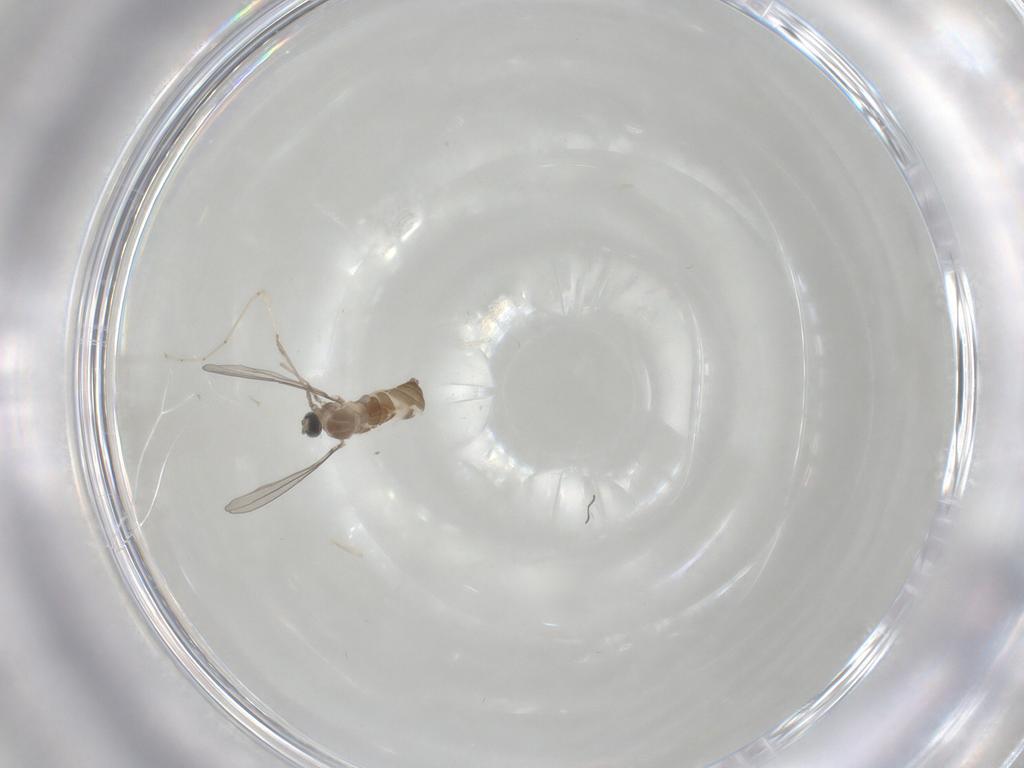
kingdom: Animalia
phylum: Arthropoda
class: Insecta
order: Diptera
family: Cecidomyiidae
